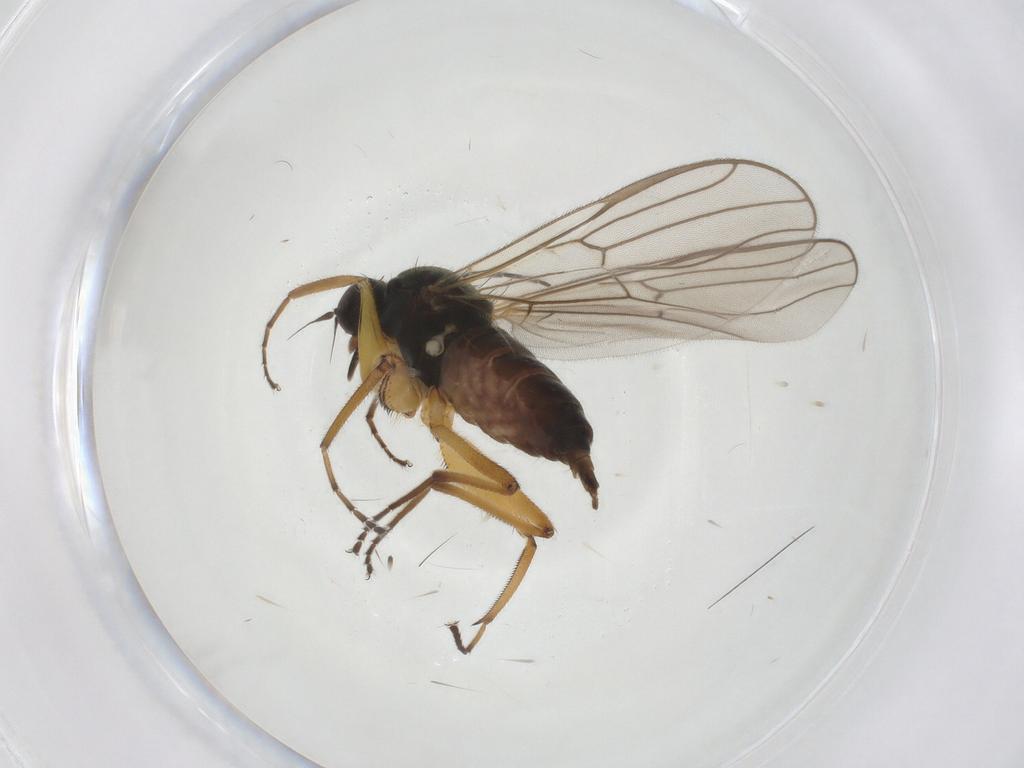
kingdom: Animalia
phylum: Arthropoda
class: Insecta
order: Diptera
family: Hybotidae
